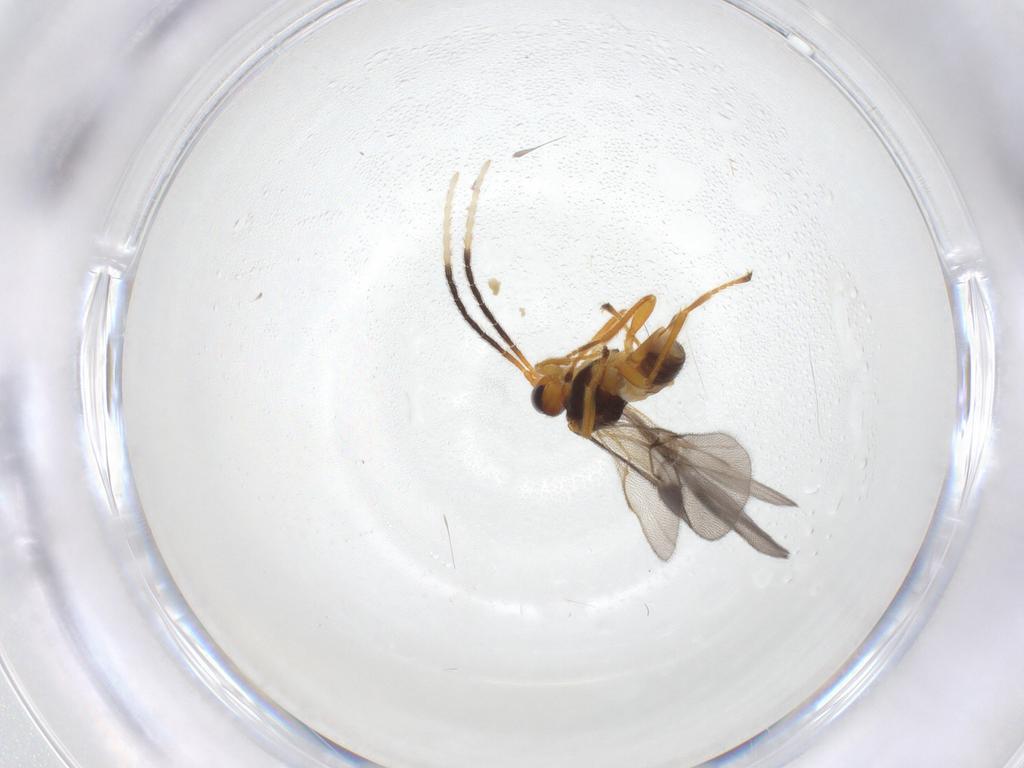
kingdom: Animalia
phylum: Arthropoda
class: Insecta
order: Hymenoptera
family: Braconidae
